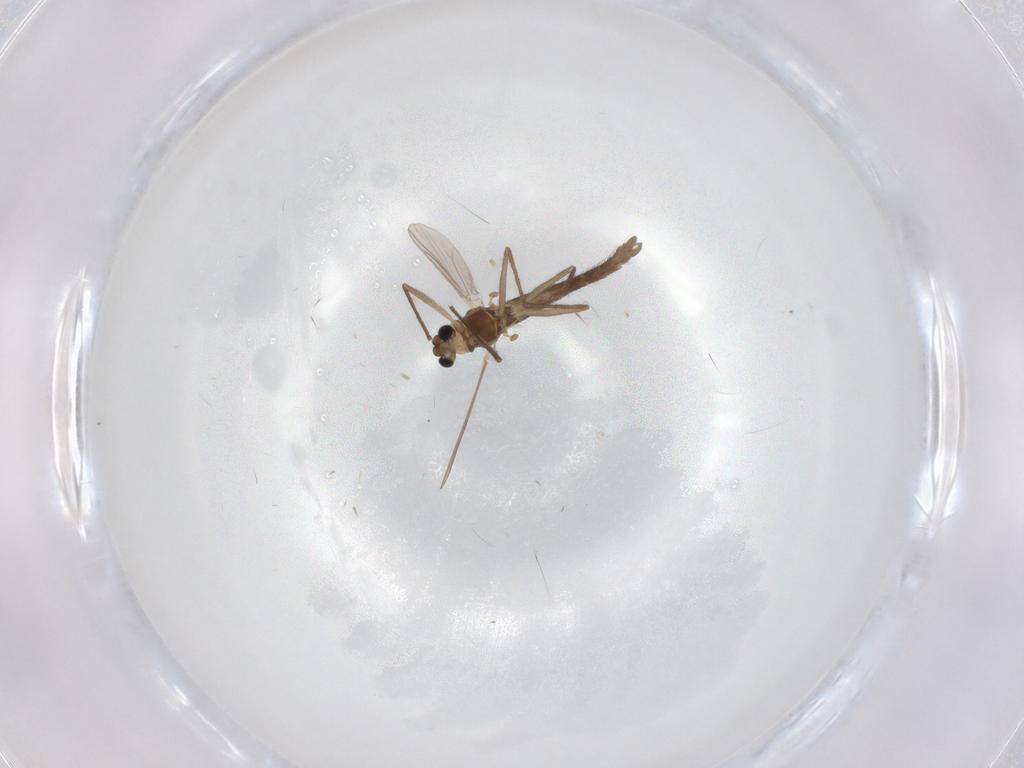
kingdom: Animalia
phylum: Arthropoda
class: Insecta
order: Diptera
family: Chironomidae
